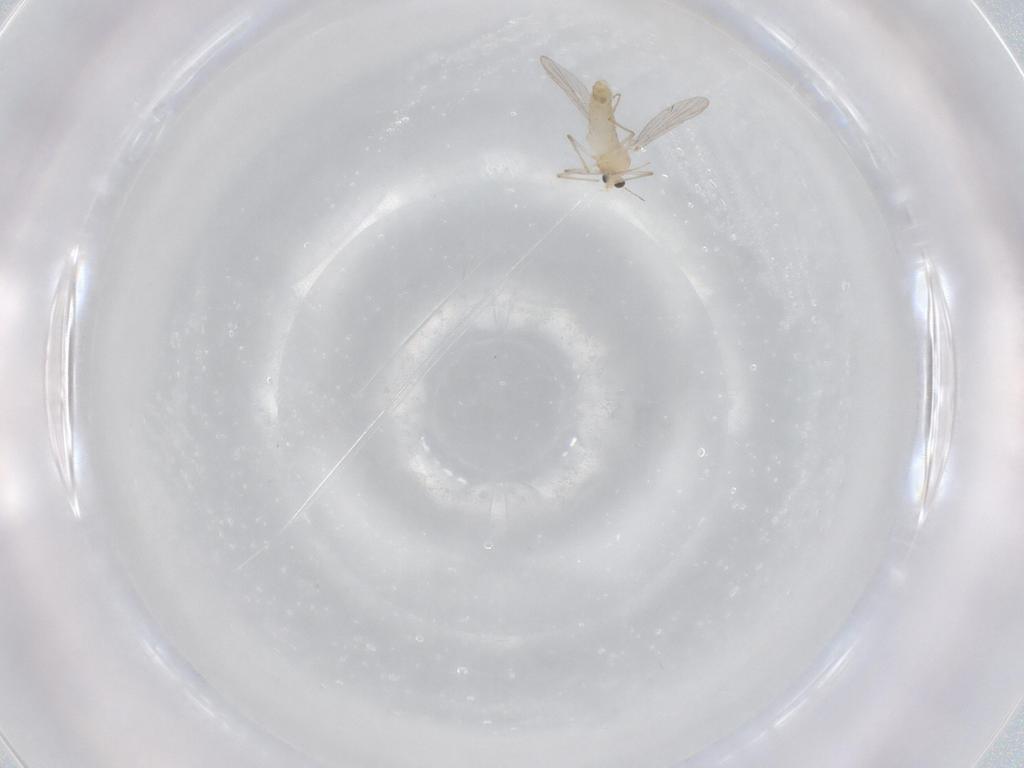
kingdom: Animalia
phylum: Arthropoda
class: Insecta
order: Diptera
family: Chironomidae
